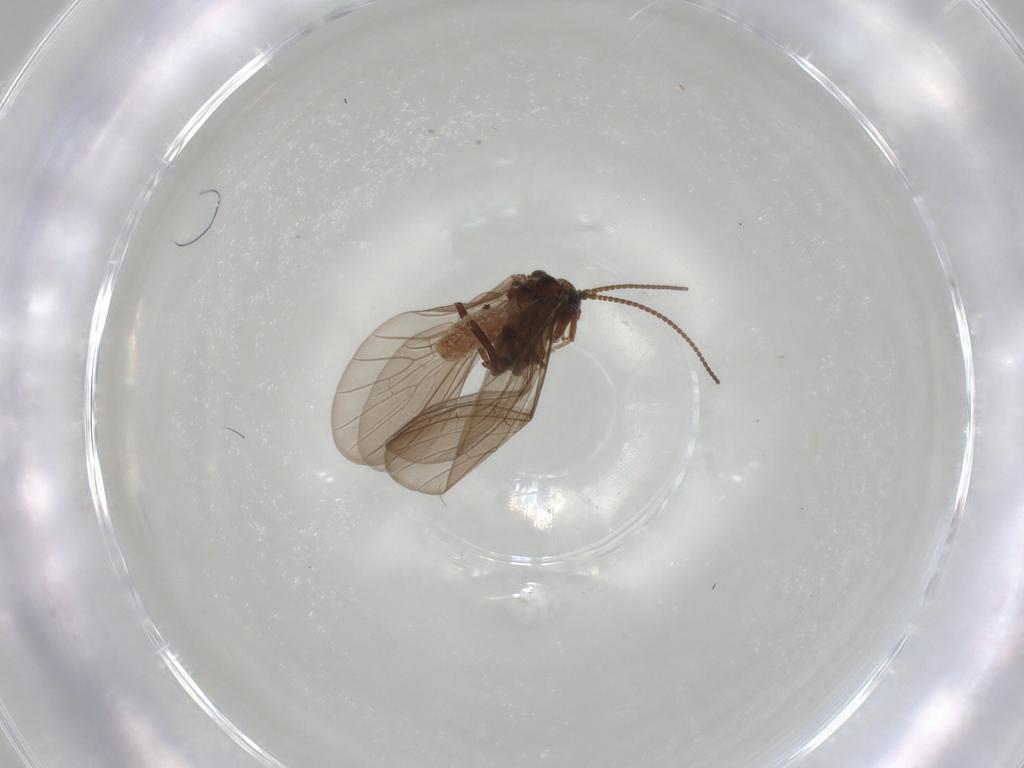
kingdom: Animalia
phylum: Arthropoda
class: Insecta
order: Neuroptera
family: Coniopterygidae
